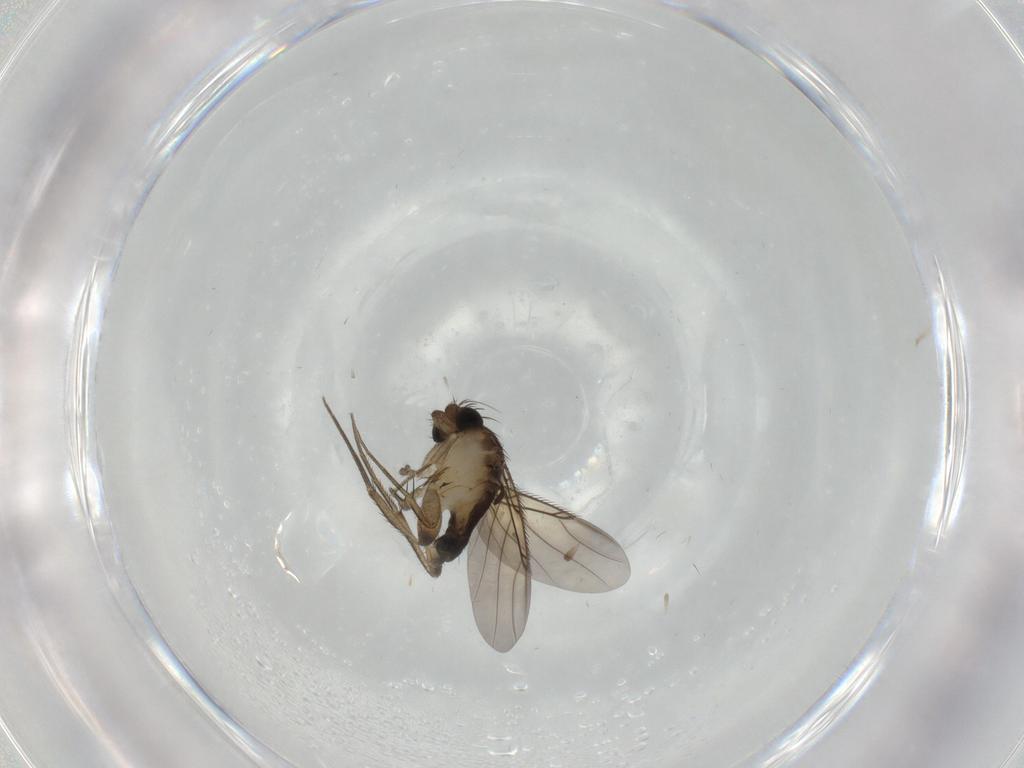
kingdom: Animalia
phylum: Arthropoda
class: Insecta
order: Diptera
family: Phoridae
